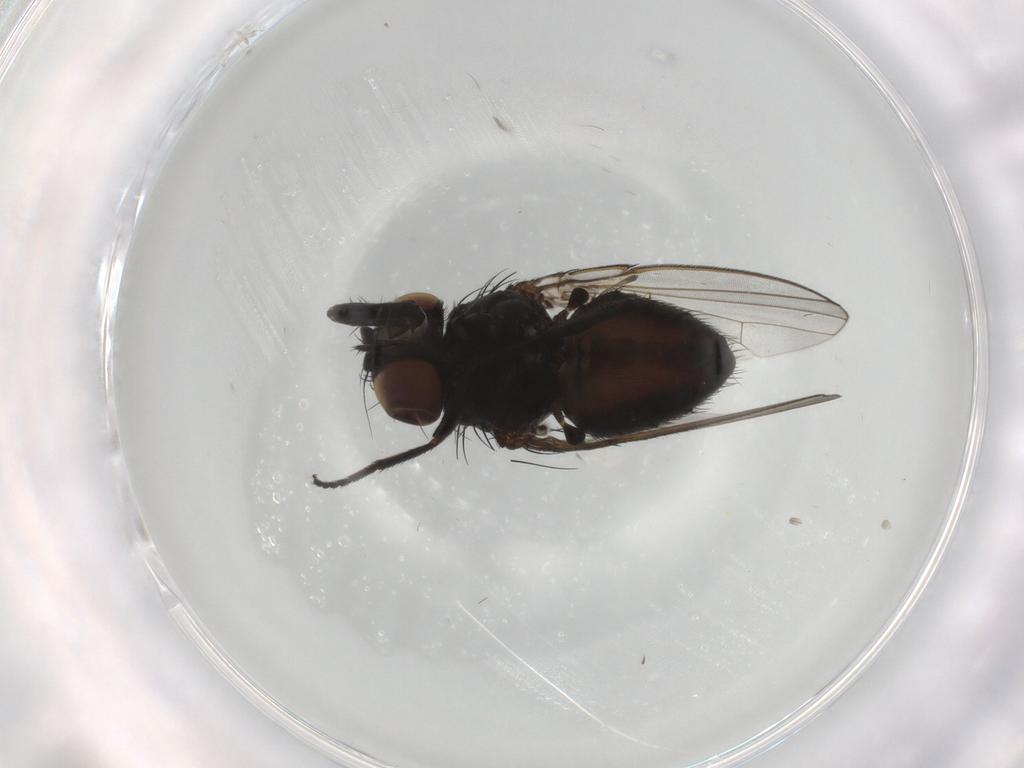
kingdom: Animalia
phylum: Arthropoda
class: Insecta
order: Diptera
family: Milichiidae
